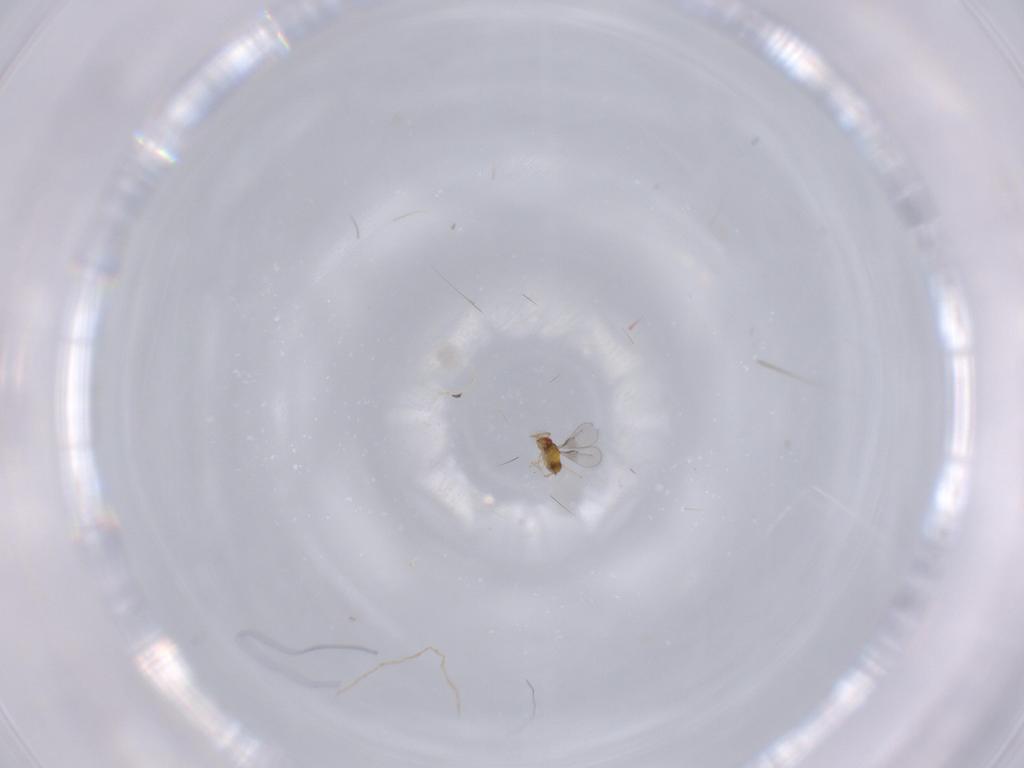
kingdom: Animalia
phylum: Arthropoda
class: Insecta
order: Hymenoptera
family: Trichogrammatidae
